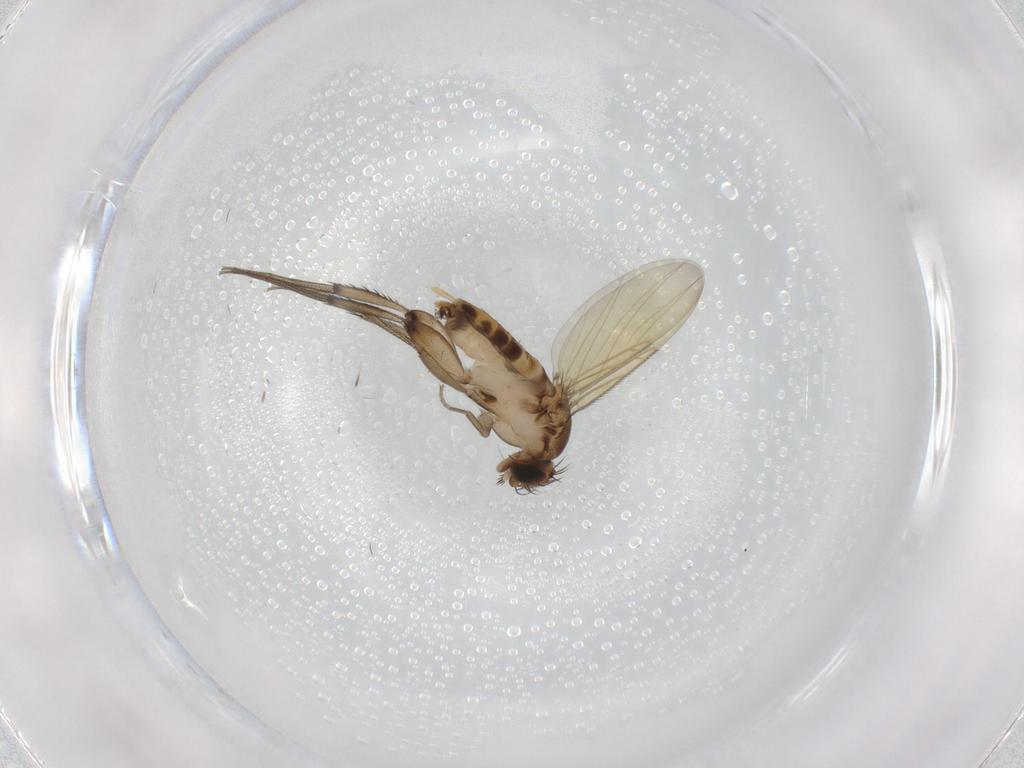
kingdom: Animalia
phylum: Arthropoda
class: Insecta
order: Diptera
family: Phoridae
